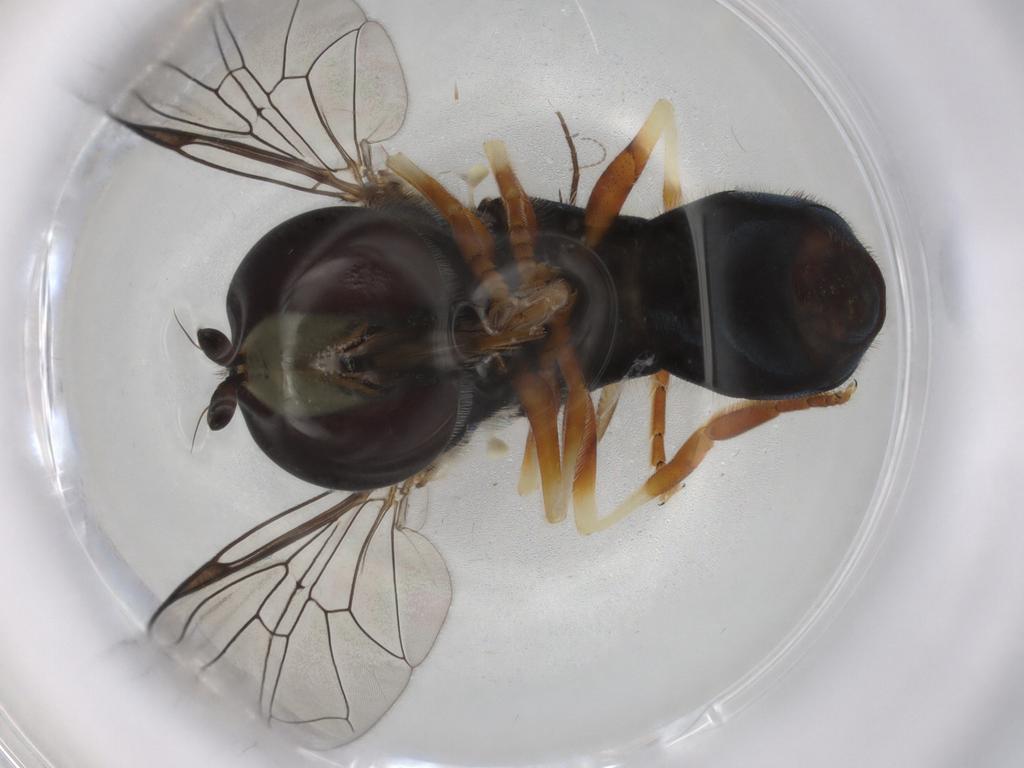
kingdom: Animalia
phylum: Arthropoda
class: Insecta
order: Diptera
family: Syrphidae
